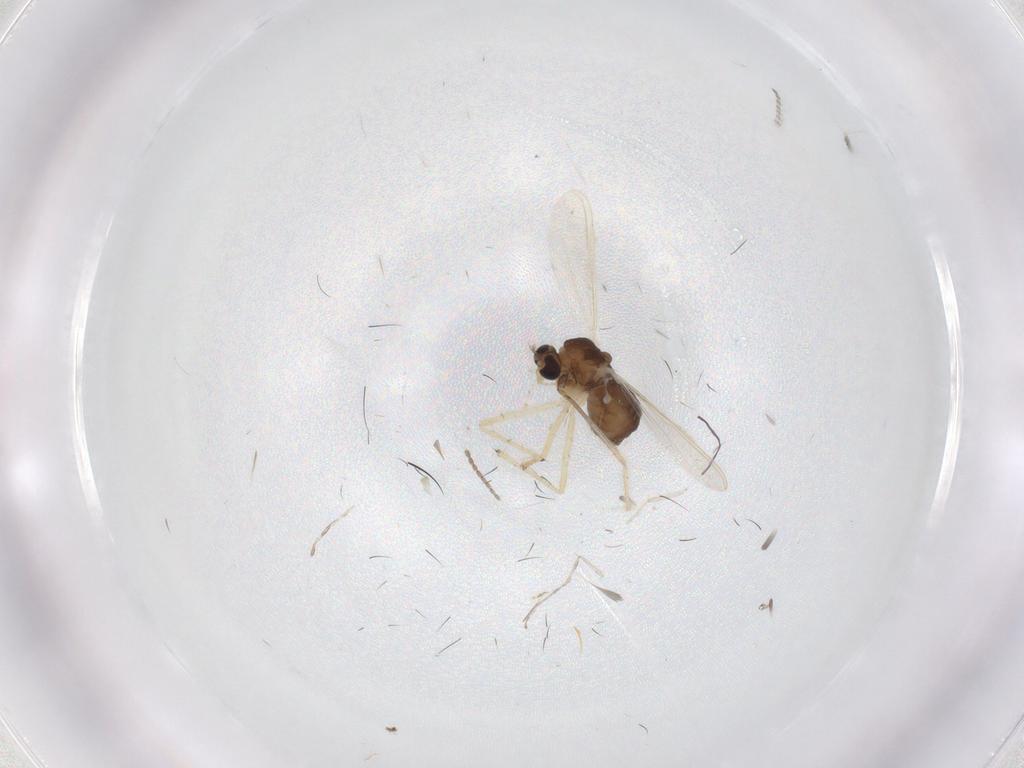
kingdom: Animalia
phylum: Arthropoda
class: Insecta
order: Diptera
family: Chironomidae
